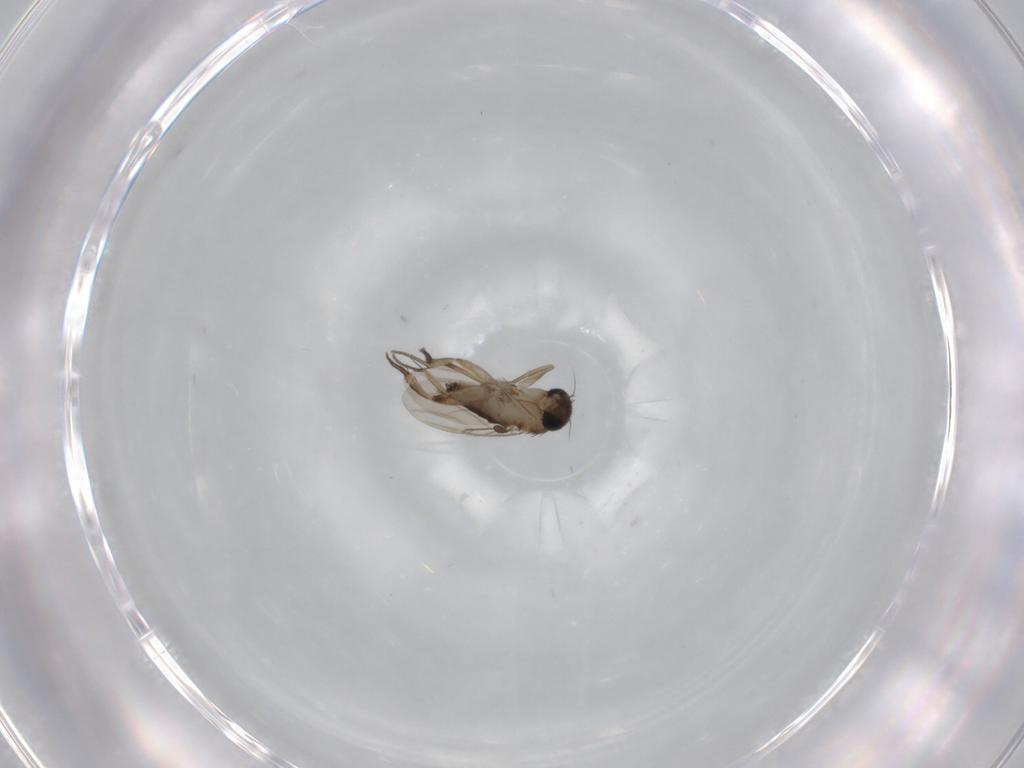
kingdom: Animalia
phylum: Arthropoda
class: Insecta
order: Diptera
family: Phoridae
